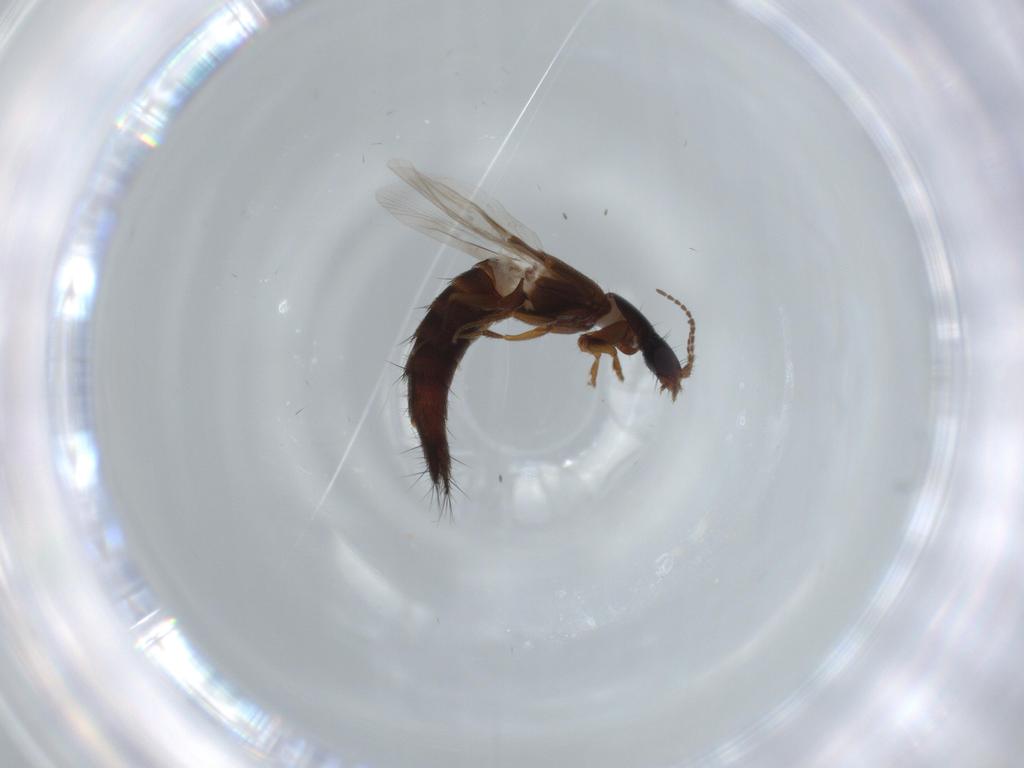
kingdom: Animalia
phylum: Arthropoda
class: Insecta
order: Coleoptera
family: Staphylinidae
